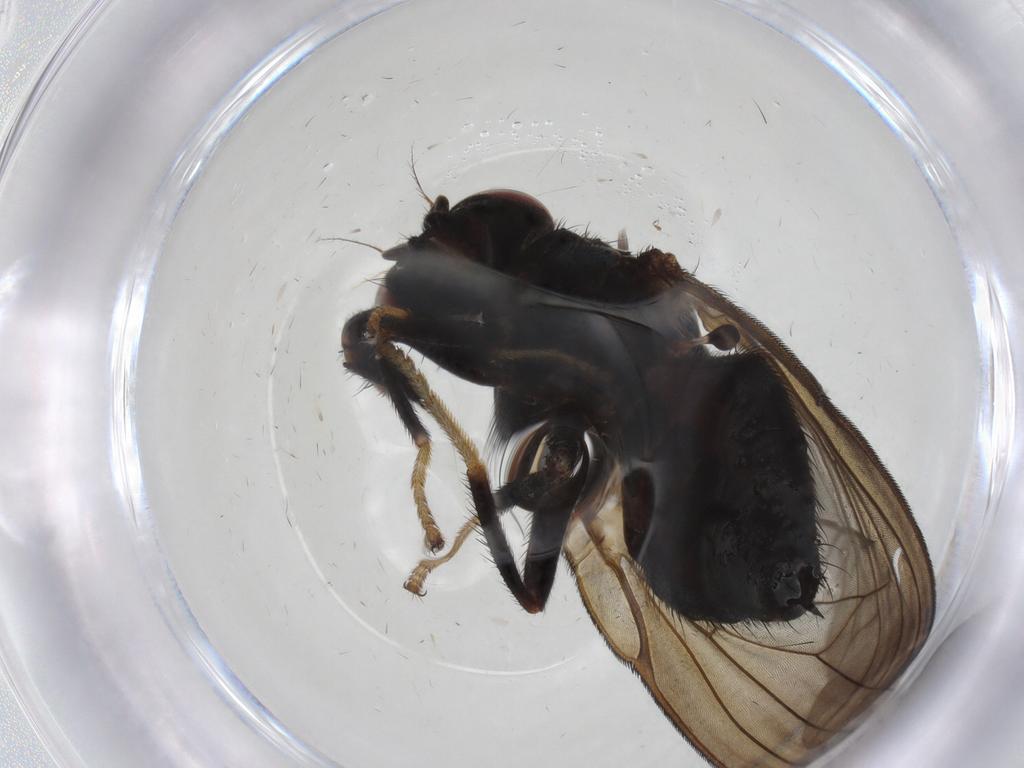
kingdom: Animalia
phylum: Arthropoda
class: Insecta
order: Diptera
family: Lonchaeidae
